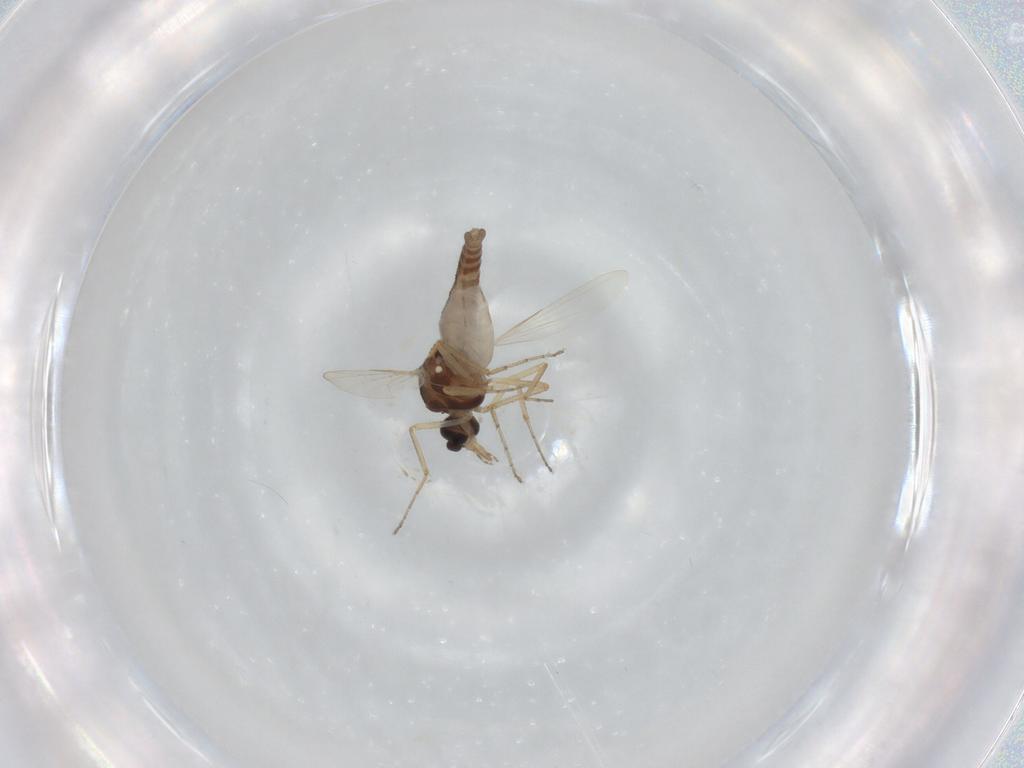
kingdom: Animalia
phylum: Arthropoda
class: Insecta
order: Diptera
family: Ceratopogonidae
